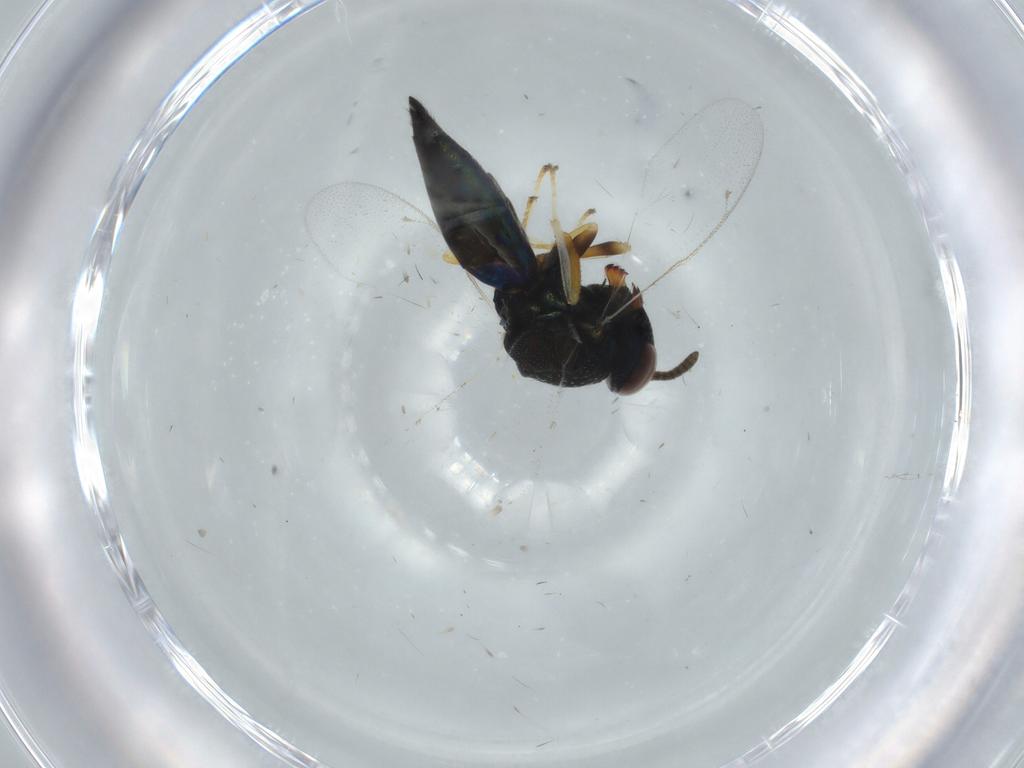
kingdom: Animalia
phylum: Arthropoda
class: Insecta
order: Hymenoptera
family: Pteromalidae
